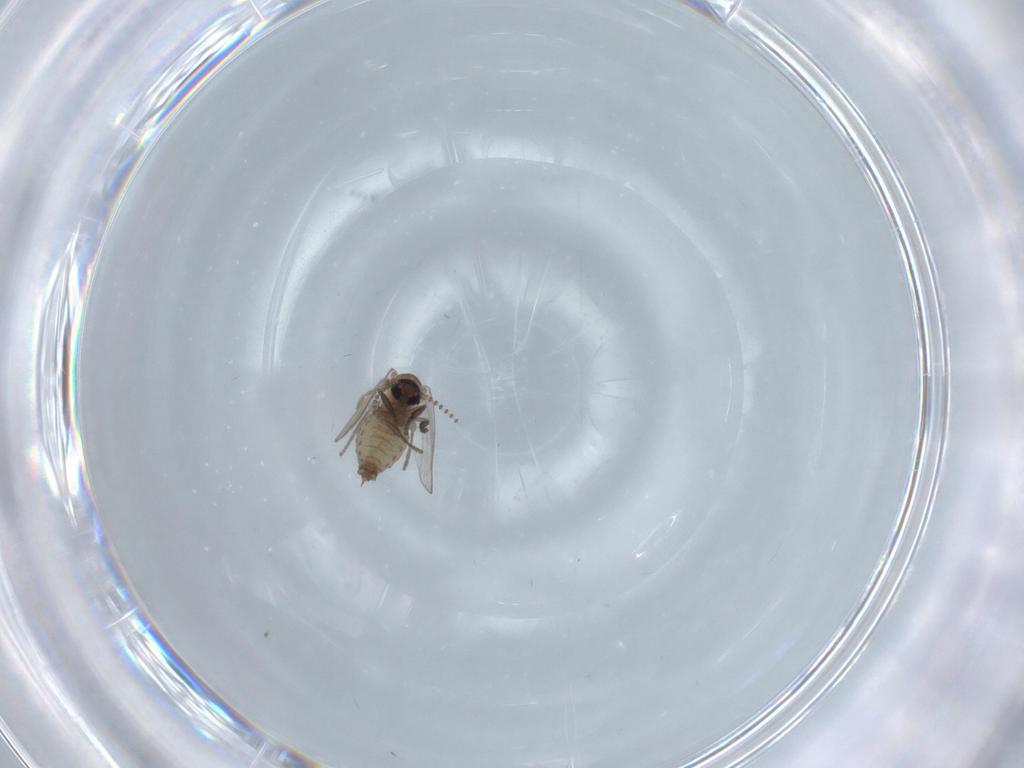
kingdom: Animalia
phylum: Arthropoda
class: Insecta
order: Diptera
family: Psychodidae
